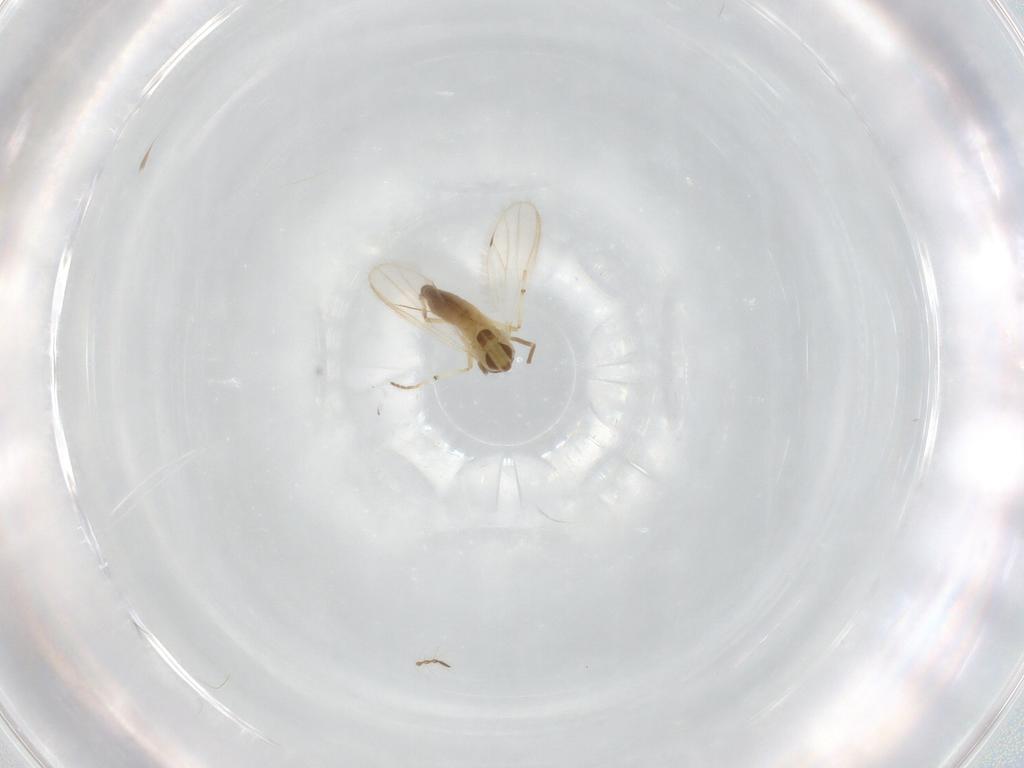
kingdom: Animalia
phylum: Arthropoda
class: Insecta
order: Diptera
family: Chironomidae
